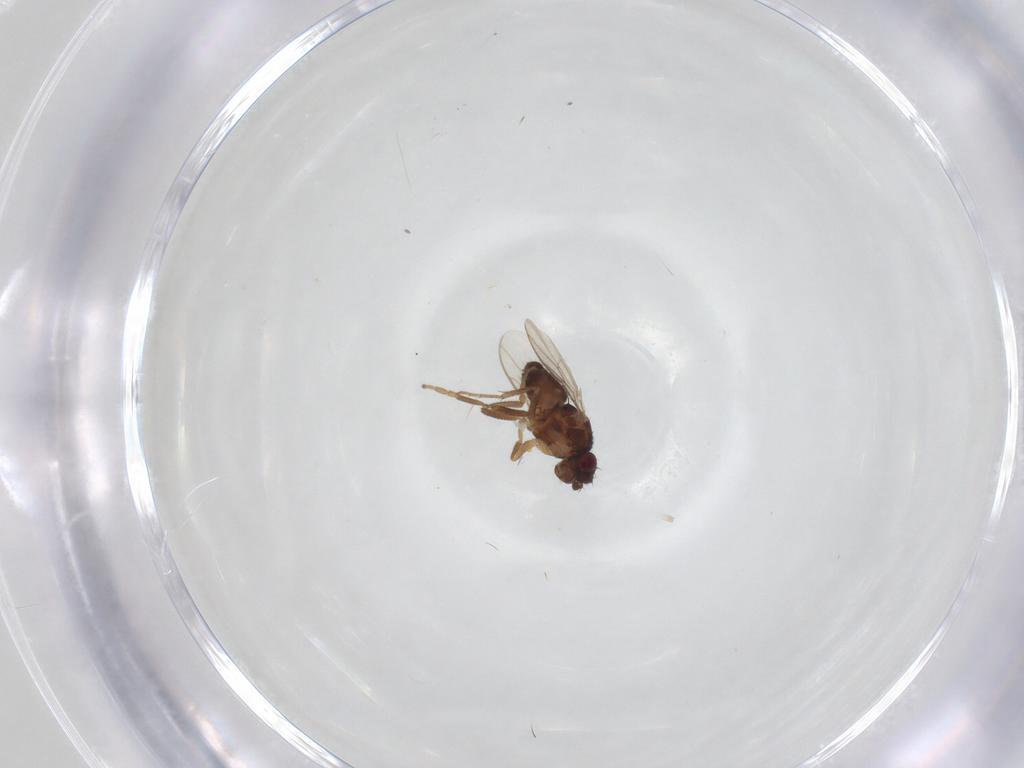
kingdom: Animalia
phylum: Arthropoda
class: Insecta
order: Diptera
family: Sphaeroceridae
